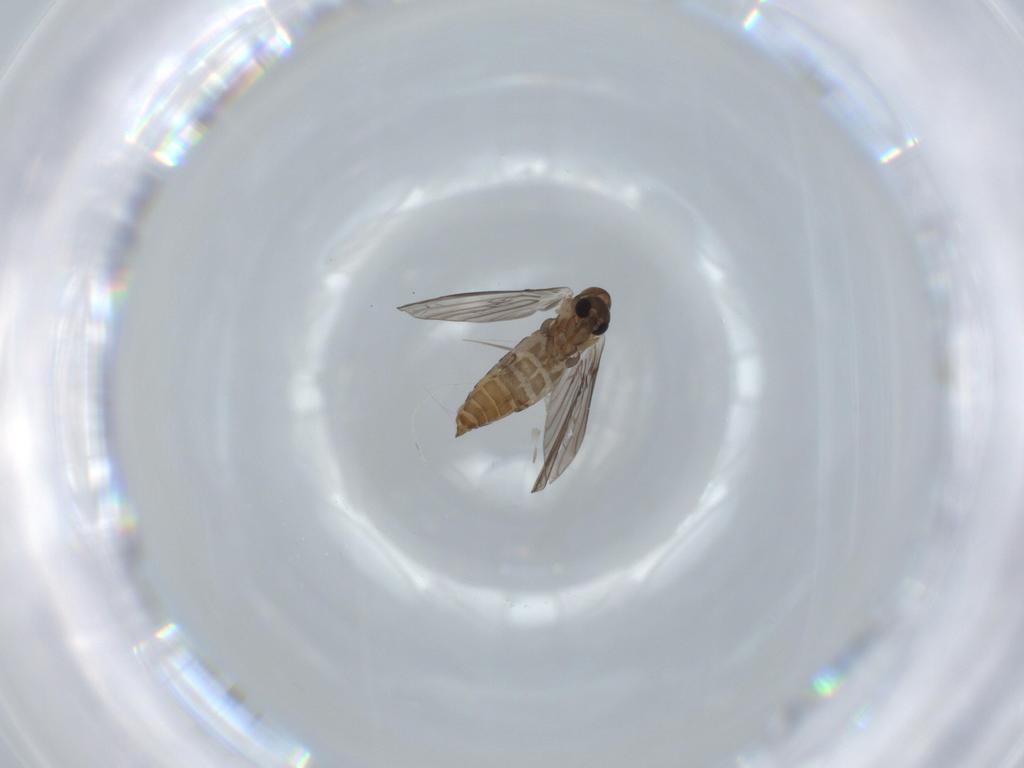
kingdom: Animalia
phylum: Arthropoda
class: Insecta
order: Diptera
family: Psychodidae
